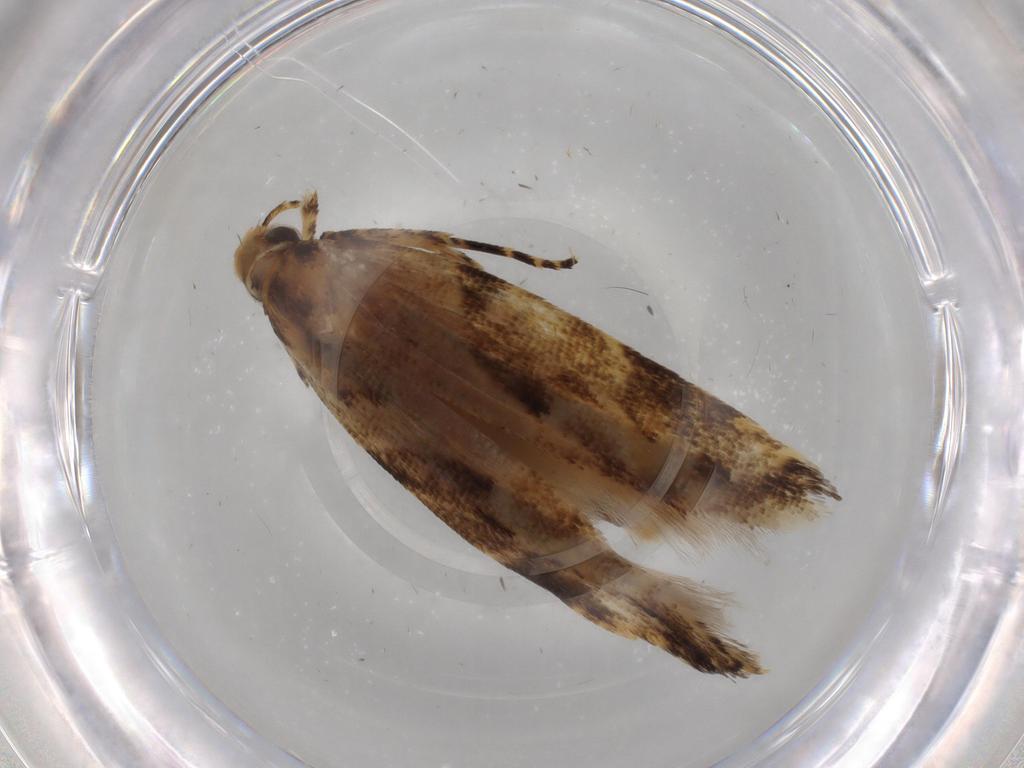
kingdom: Animalia
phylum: Arthropoda
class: Insecta
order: Lepidoptera
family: Gelechiidae
